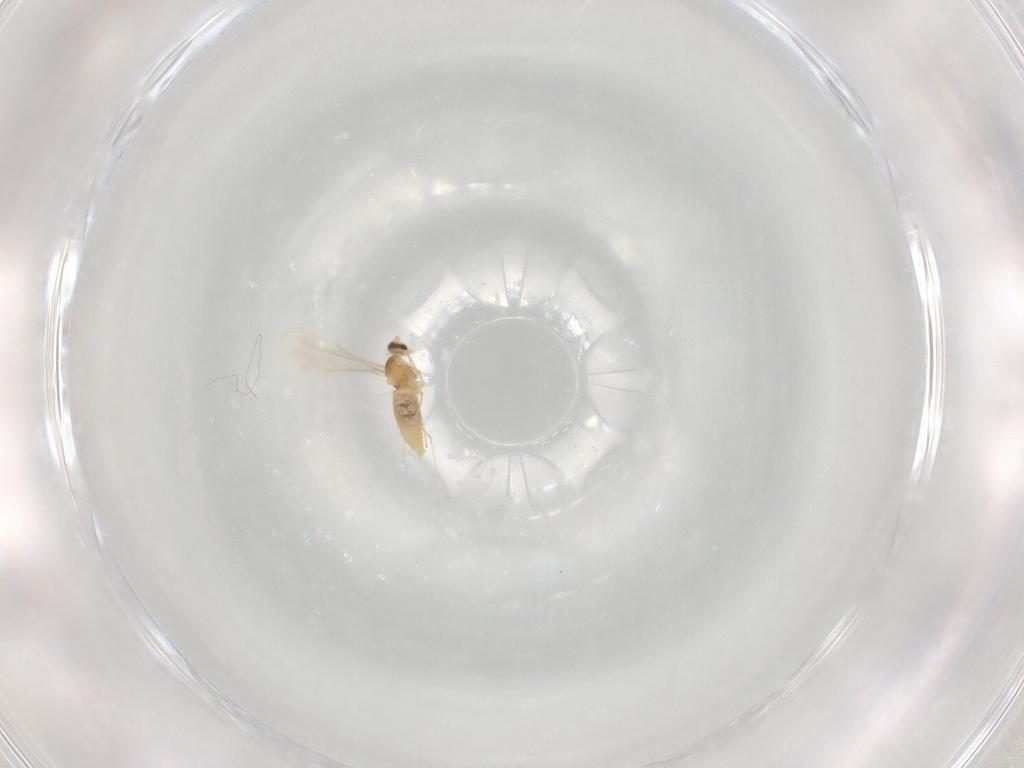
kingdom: Animalia
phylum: Arthropoda
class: Insecta
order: Diptera
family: Cecidomyiidae
